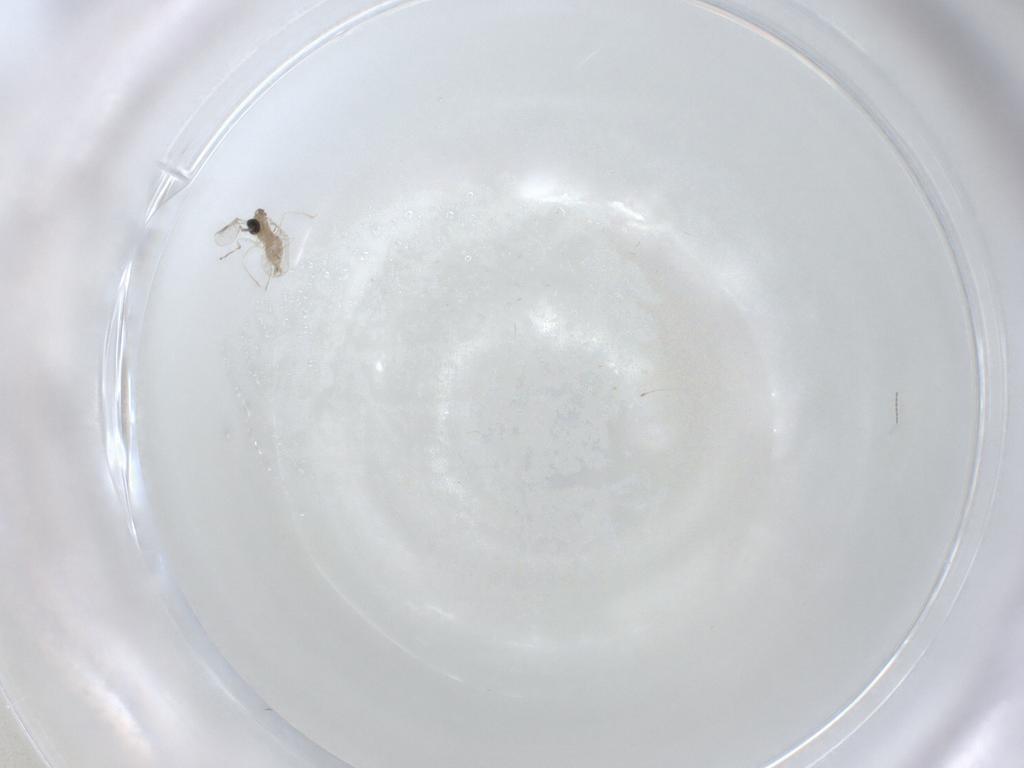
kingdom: Animalia
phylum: Arthropoda
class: Insecta
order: Diptera
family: Cecidomyiidae
